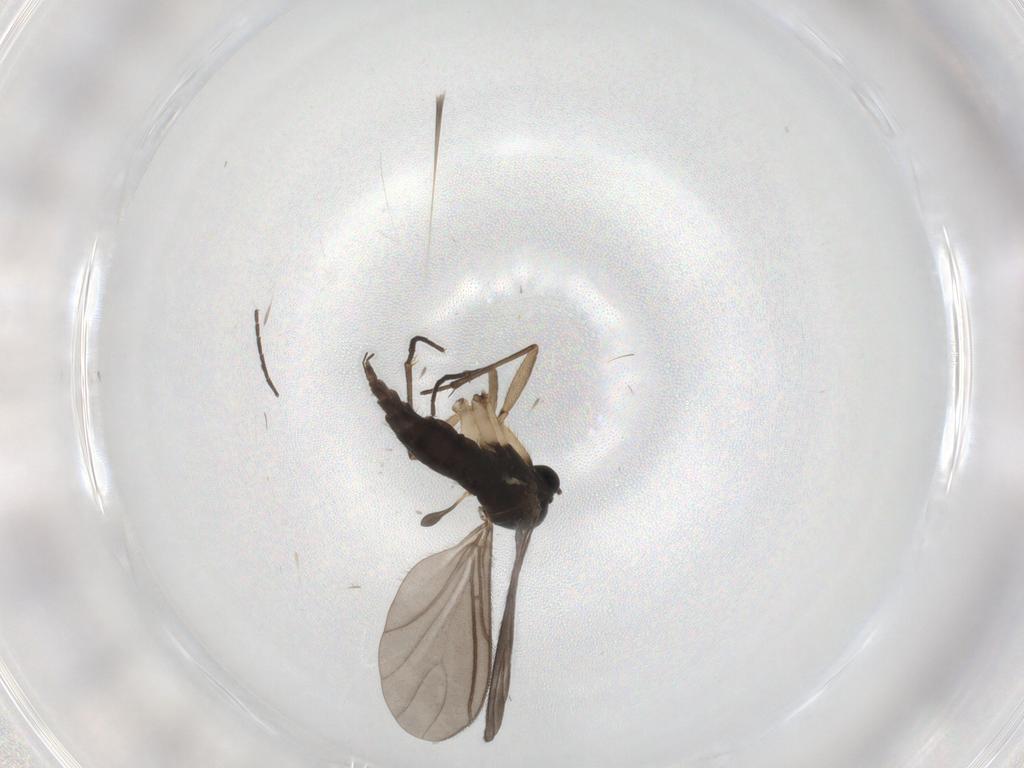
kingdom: Animalia
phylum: Arthropoda
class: Insecta
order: Diptera
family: Sciaridae
